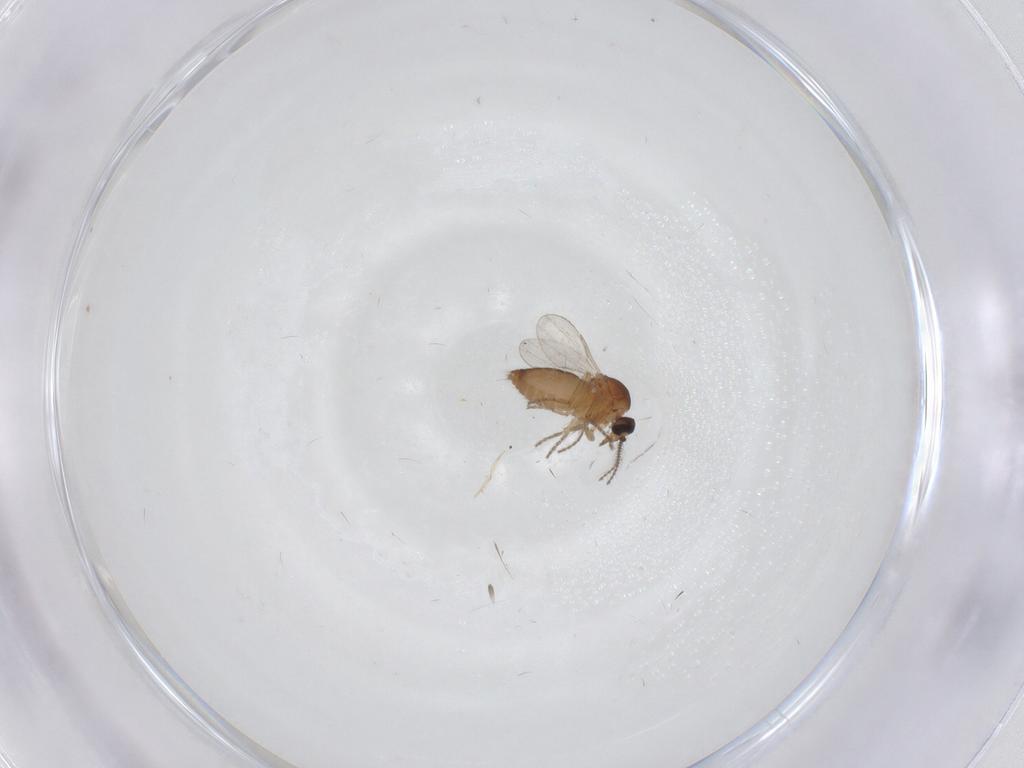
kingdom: Animalia
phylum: Arthropoda
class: Insecta
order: Diptera
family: Ceratopogonidae
